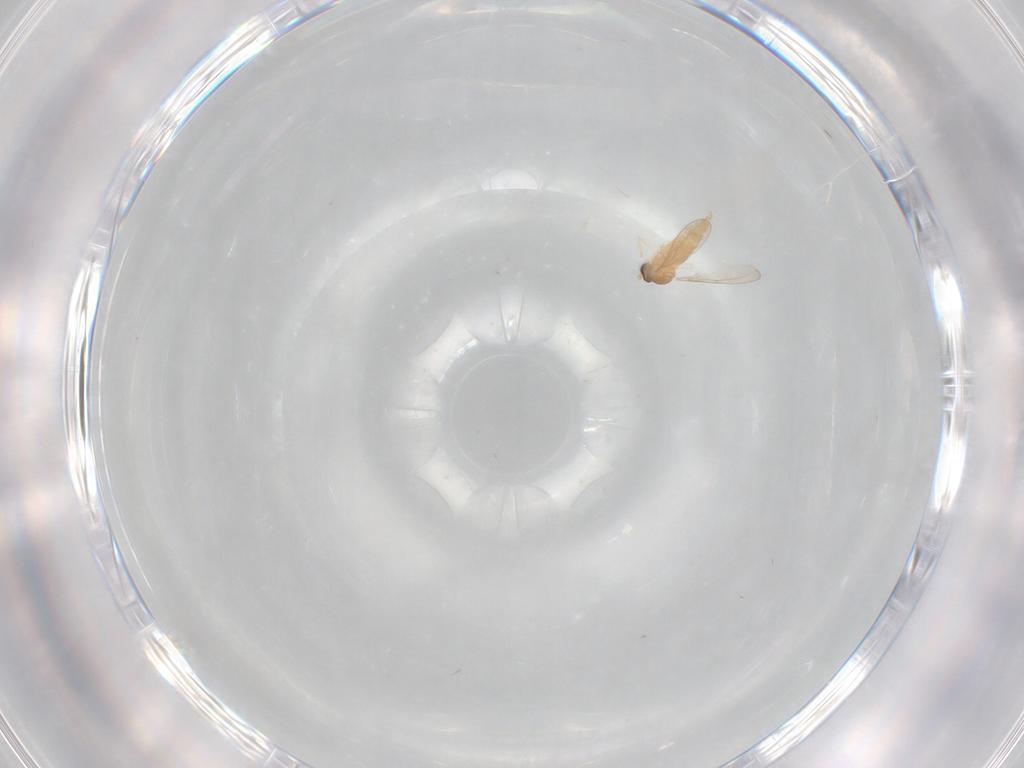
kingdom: Animalia
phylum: Arthropoda
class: Insecta
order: Diptera
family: Cecidomyiidae
